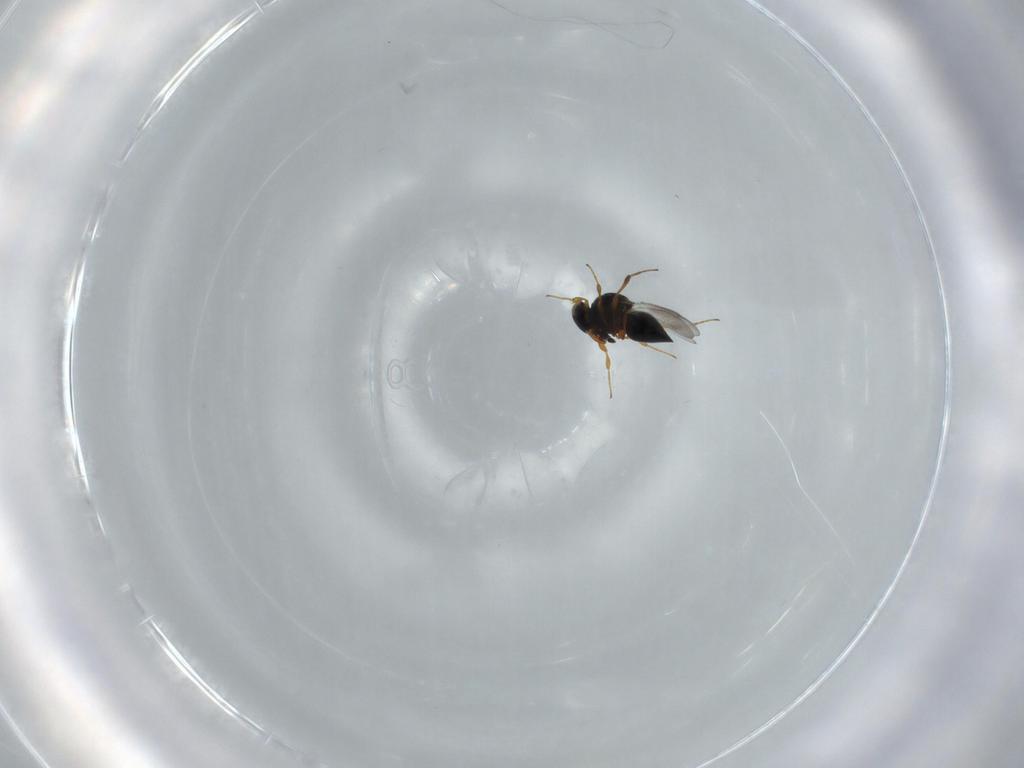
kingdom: Animalia
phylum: Arthropoda
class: Insecta
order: Hymenoptera
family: Platygastridae
